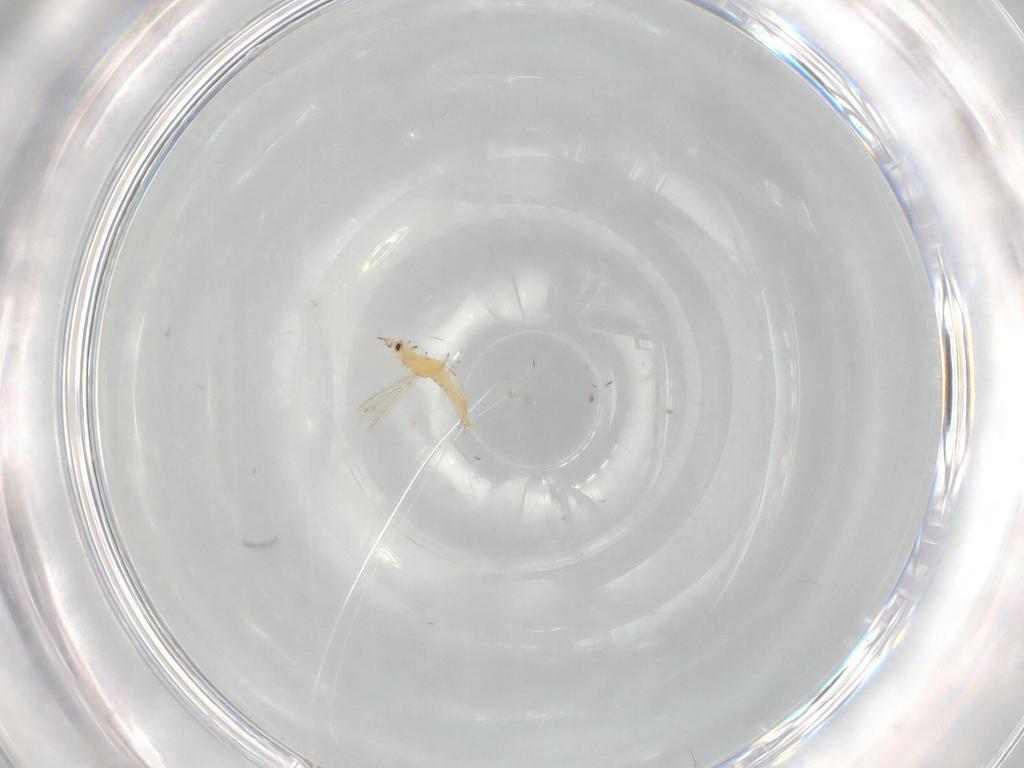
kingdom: Animalia
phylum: Arthropoda
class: Insecta
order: Thysanoptera
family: Thripidae
